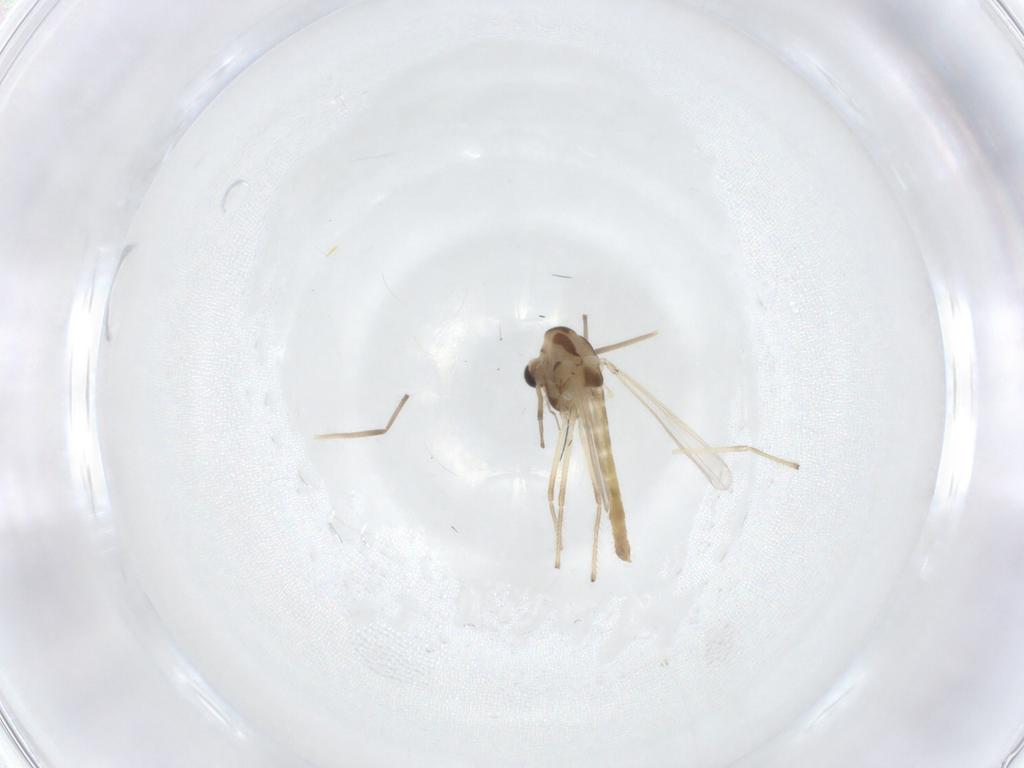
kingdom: Animalia
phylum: Arthropoda
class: Insecta
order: Diptera
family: Chironomidae
